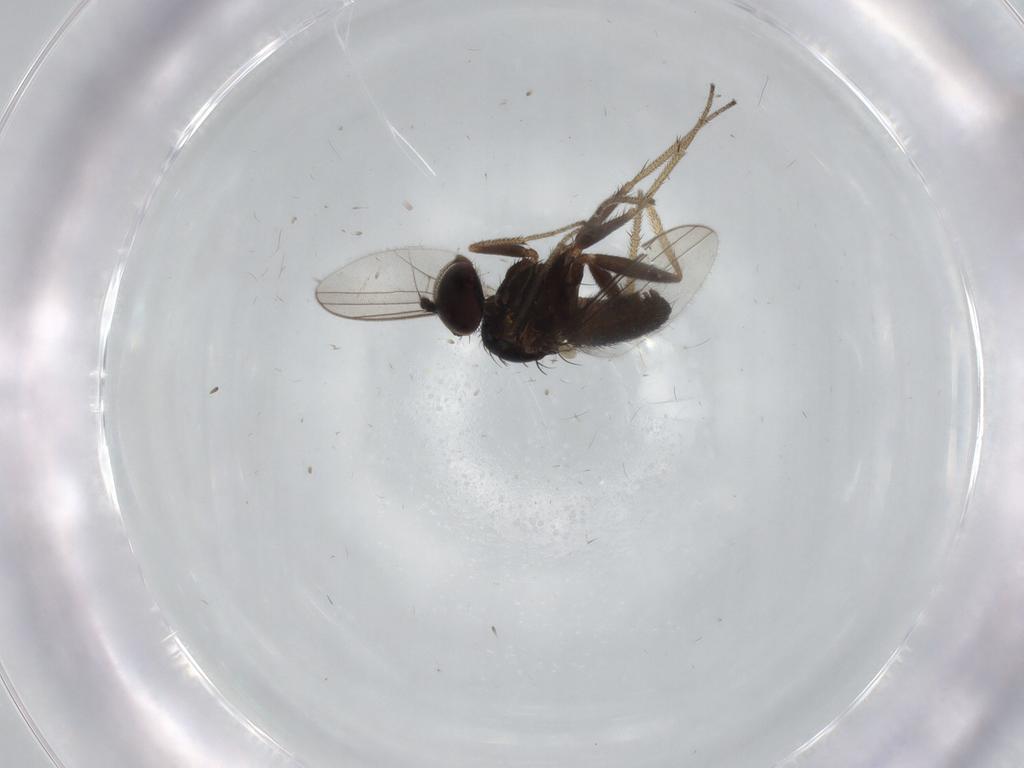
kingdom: Animalia
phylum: Arthropoda
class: Insecta
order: Diptera
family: Dolichopodidae
